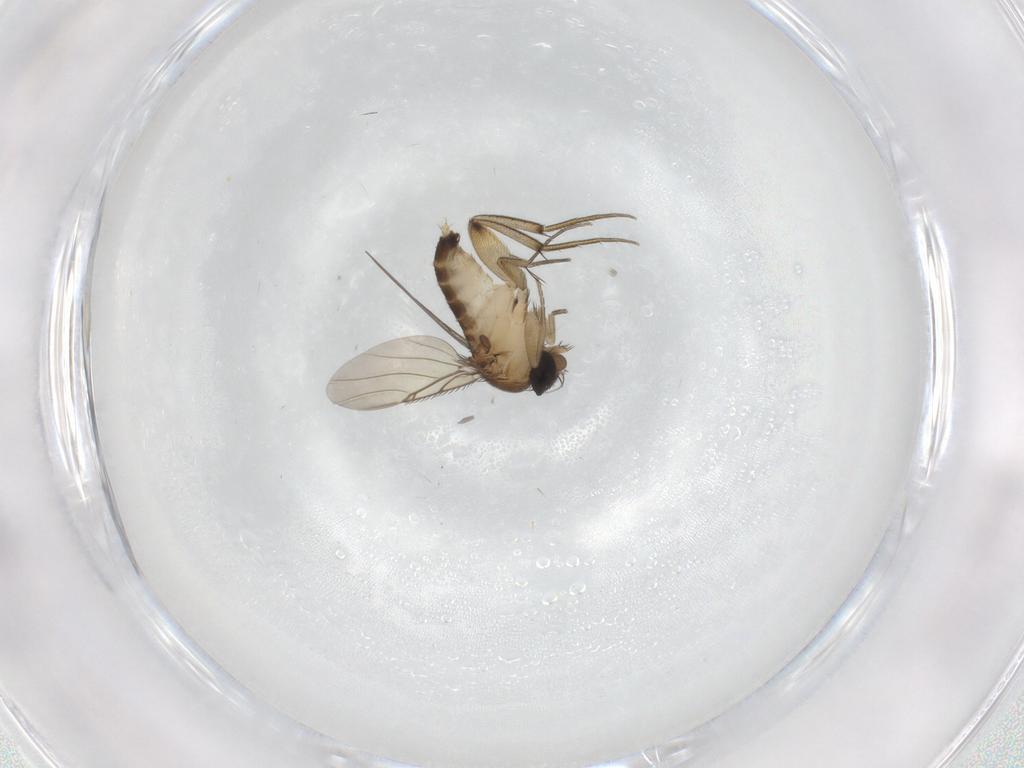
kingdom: Animalia
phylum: Arthropoda
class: Insecta
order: Diptera
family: Phoridae
